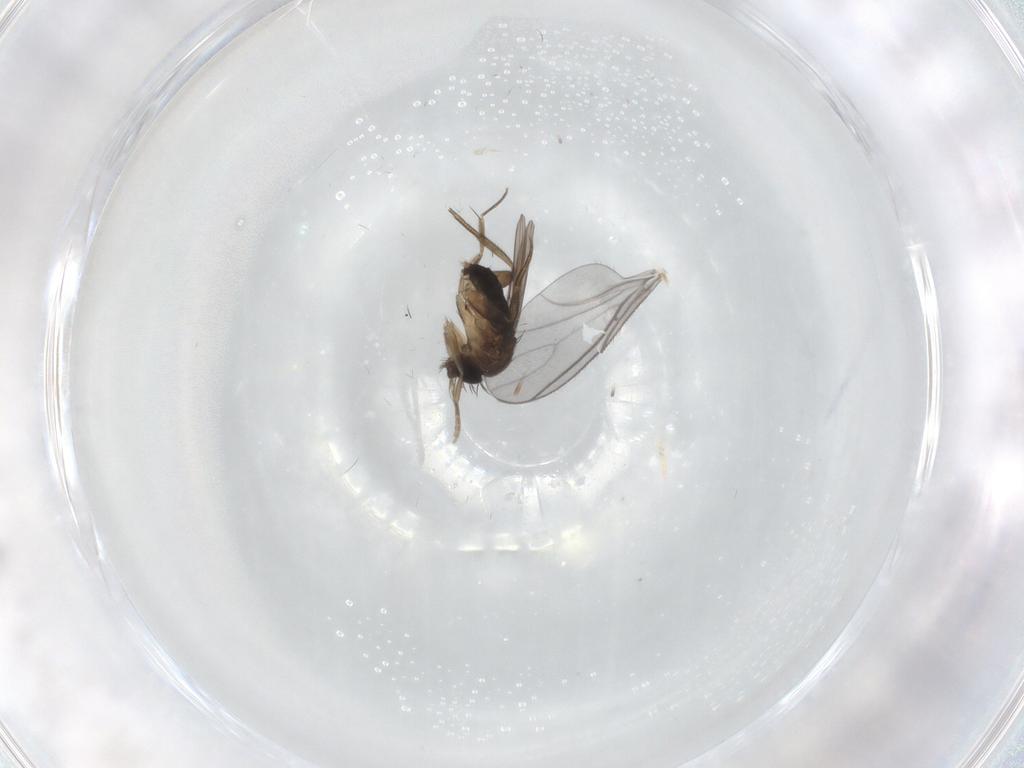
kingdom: Animalia
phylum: Arthropoda
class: Insecta
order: Diptera
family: Phoridae
